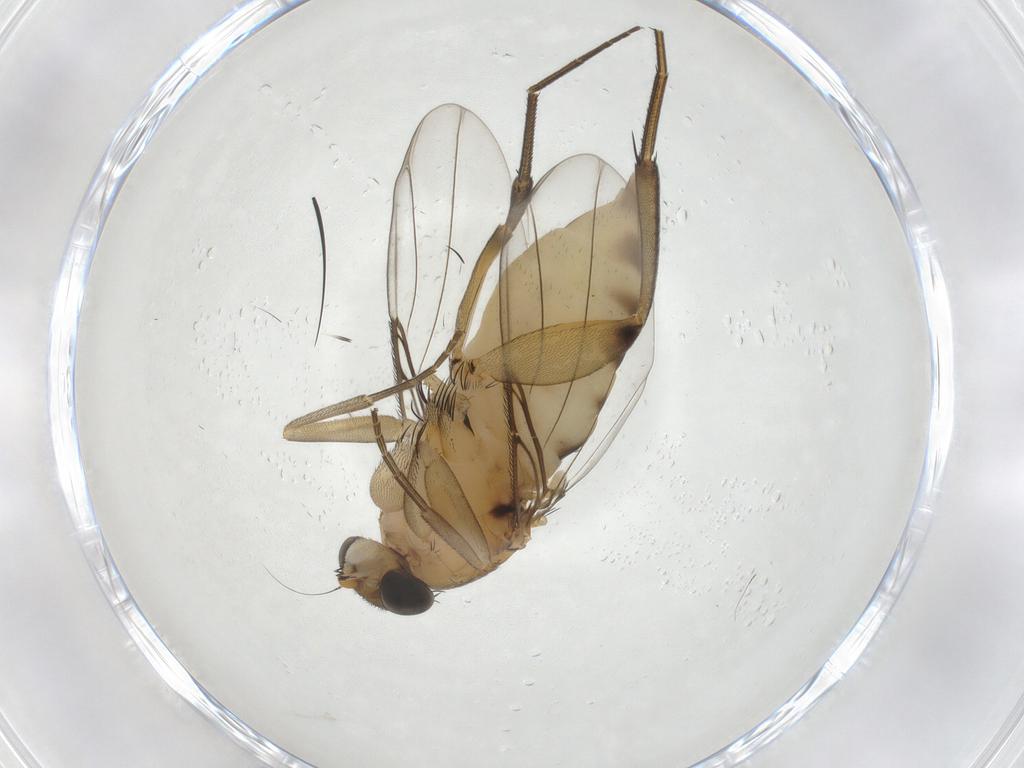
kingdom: Animalia
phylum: Arthropoda
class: Insecta
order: Diptera
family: Phoridae
